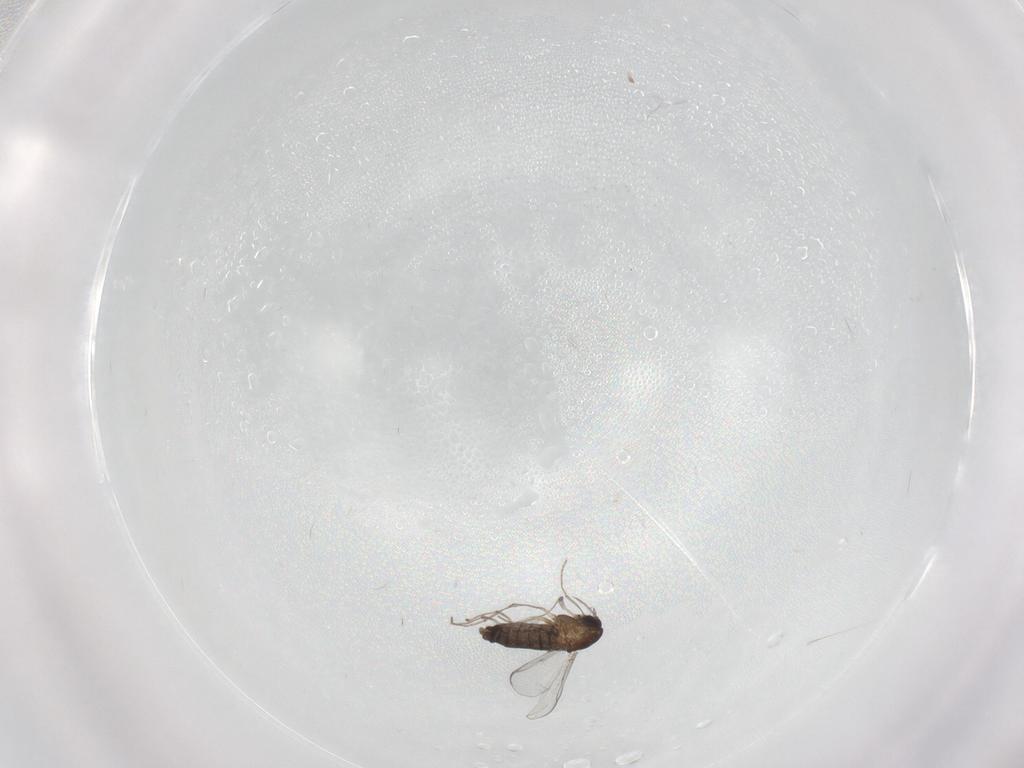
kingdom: Animalia
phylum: Arthropoda
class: Insecta
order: Diptera
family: Chironomidae
